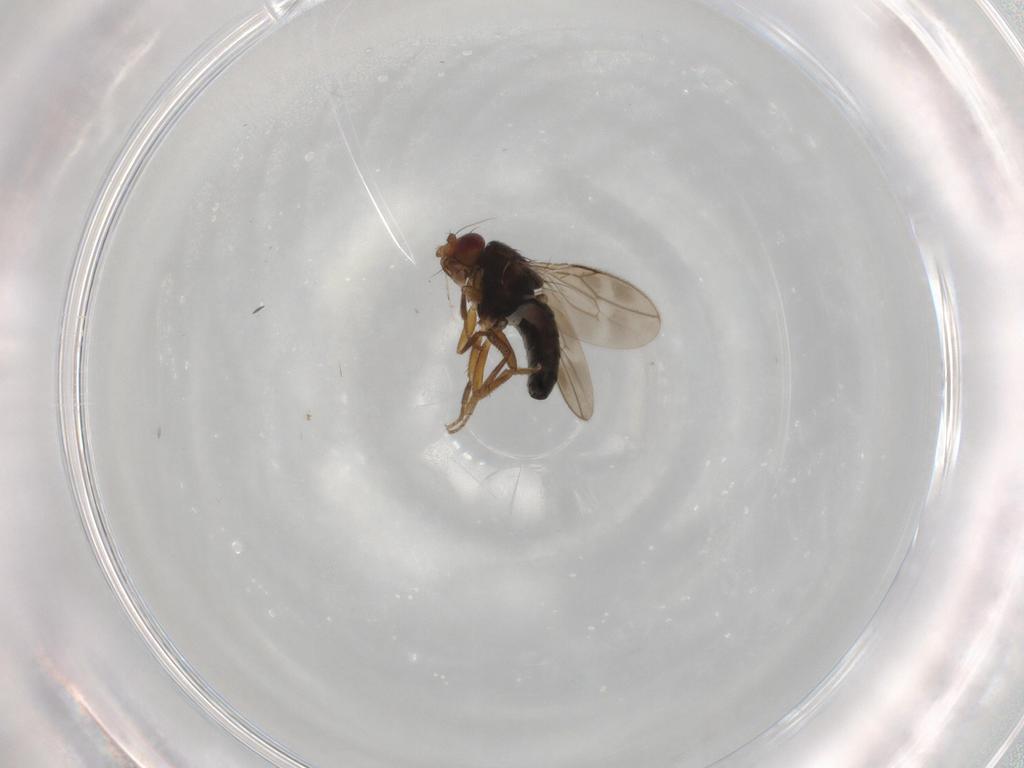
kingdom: Animalia
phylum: Arthropoda
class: Insecta
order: Diptera
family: Sphaeroceridae
